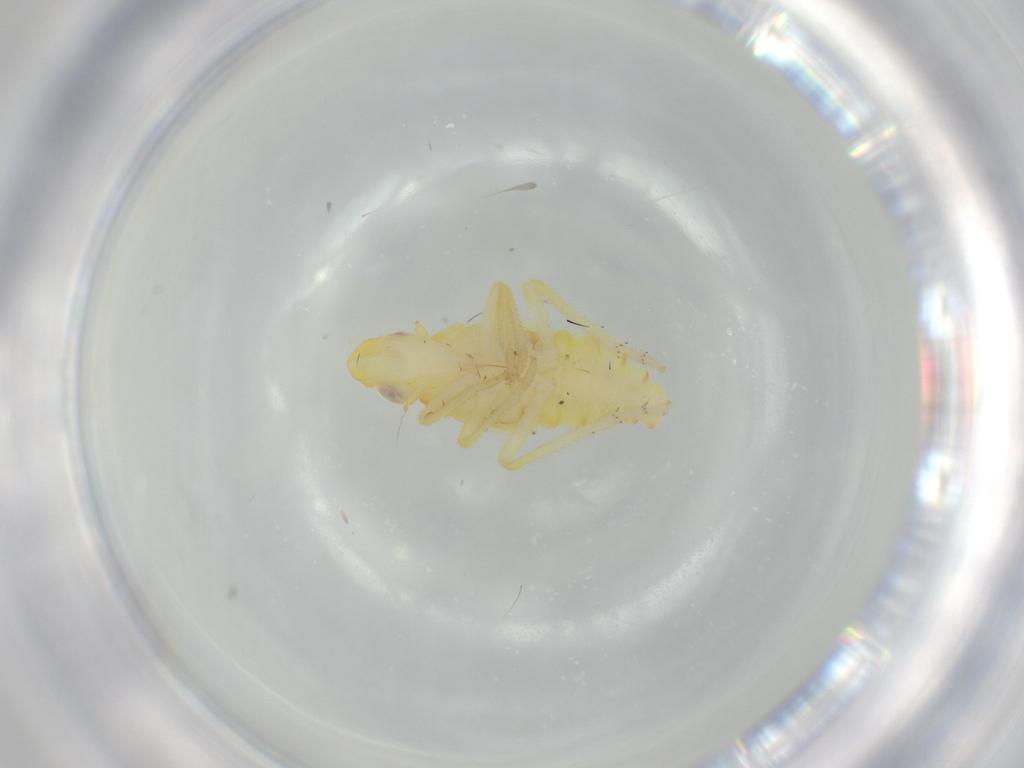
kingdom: Animalia
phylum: Arthropoda
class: Insecta
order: Hemiptera
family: Tropiduchidae
